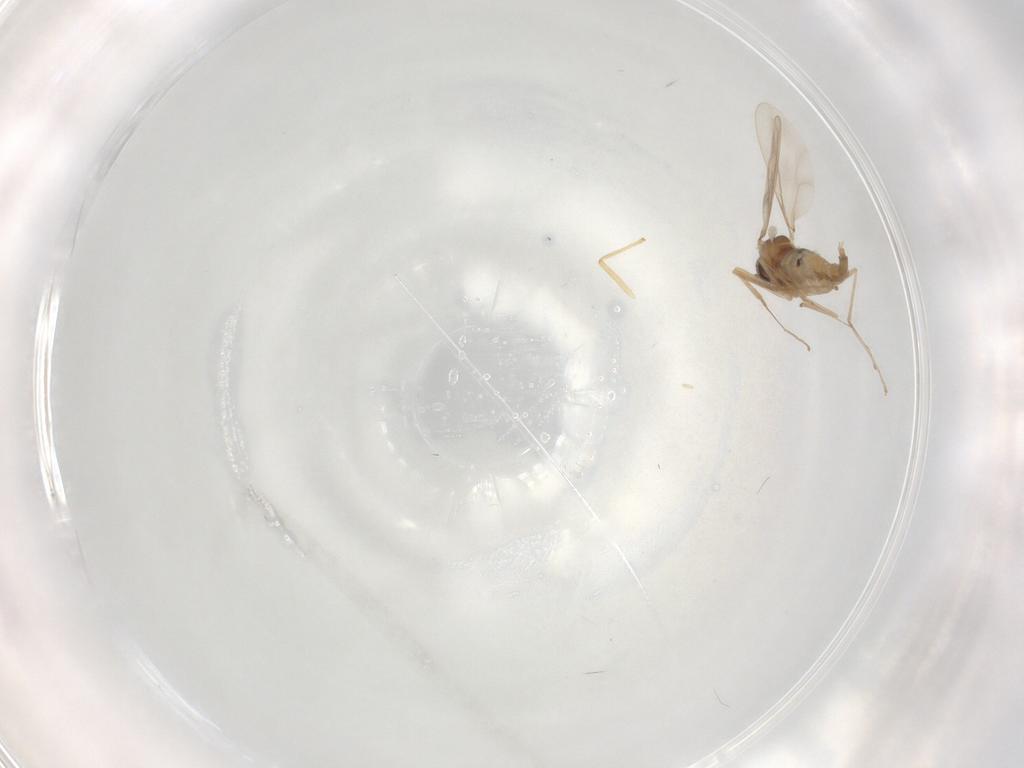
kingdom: Animalia
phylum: Arthropoda
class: Insecta
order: Diptera
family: Cecidomyiidae
